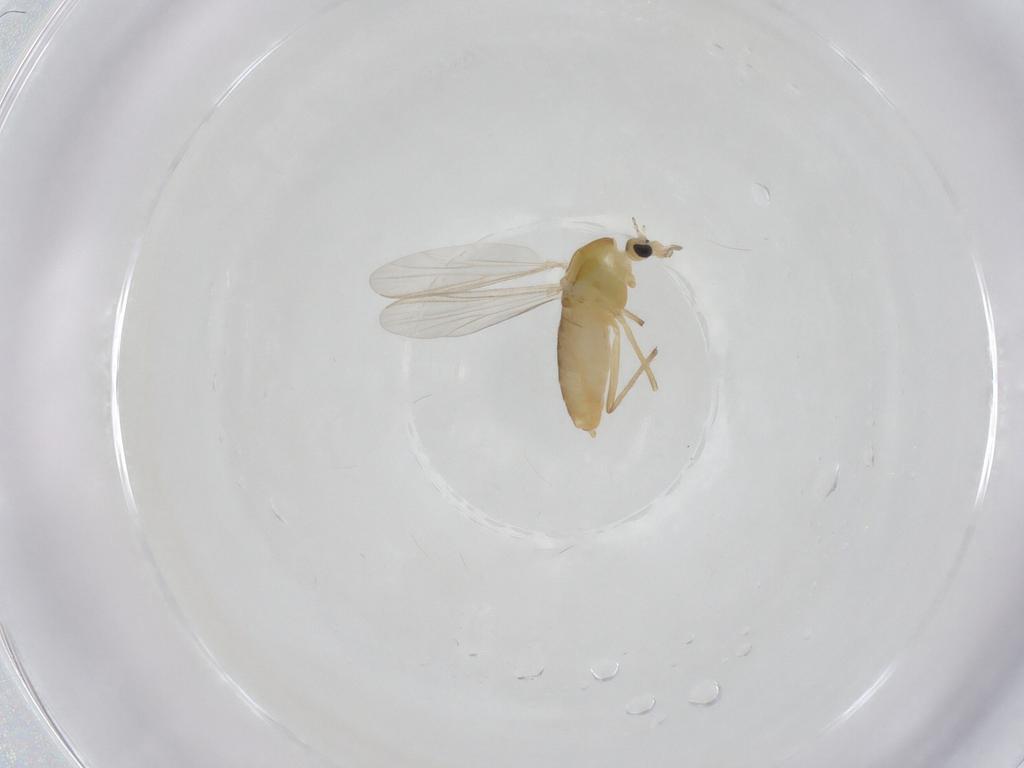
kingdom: Animalia
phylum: Arthropoda
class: Insecta
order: Diptera
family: Chironomidae
